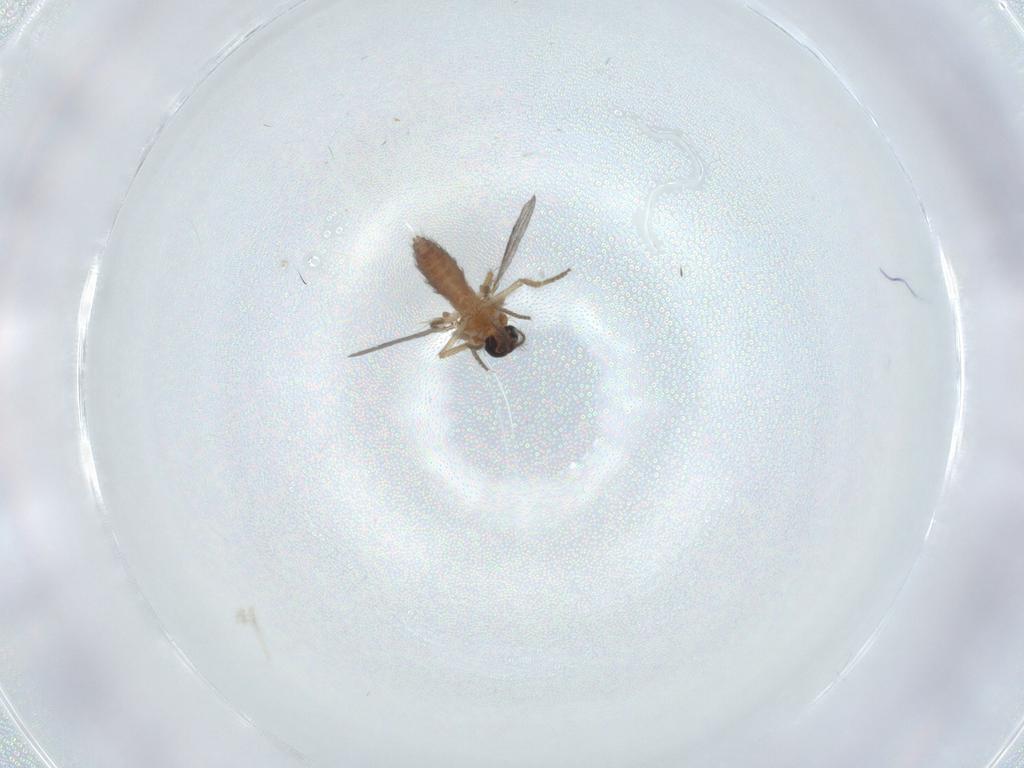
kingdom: Animalia
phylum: Arthropoda
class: Insecta
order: Diptera
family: Ceratopogonidae
